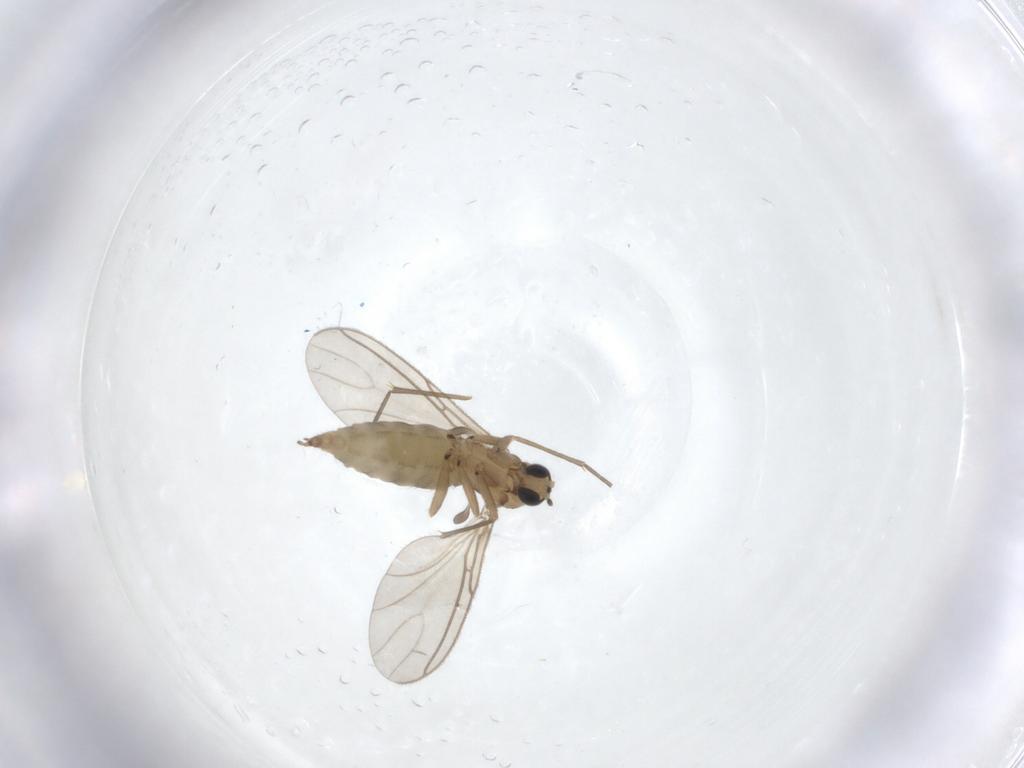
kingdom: Animalia
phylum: Arthropoda
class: Insecta
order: Diptera
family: Sciaridae
